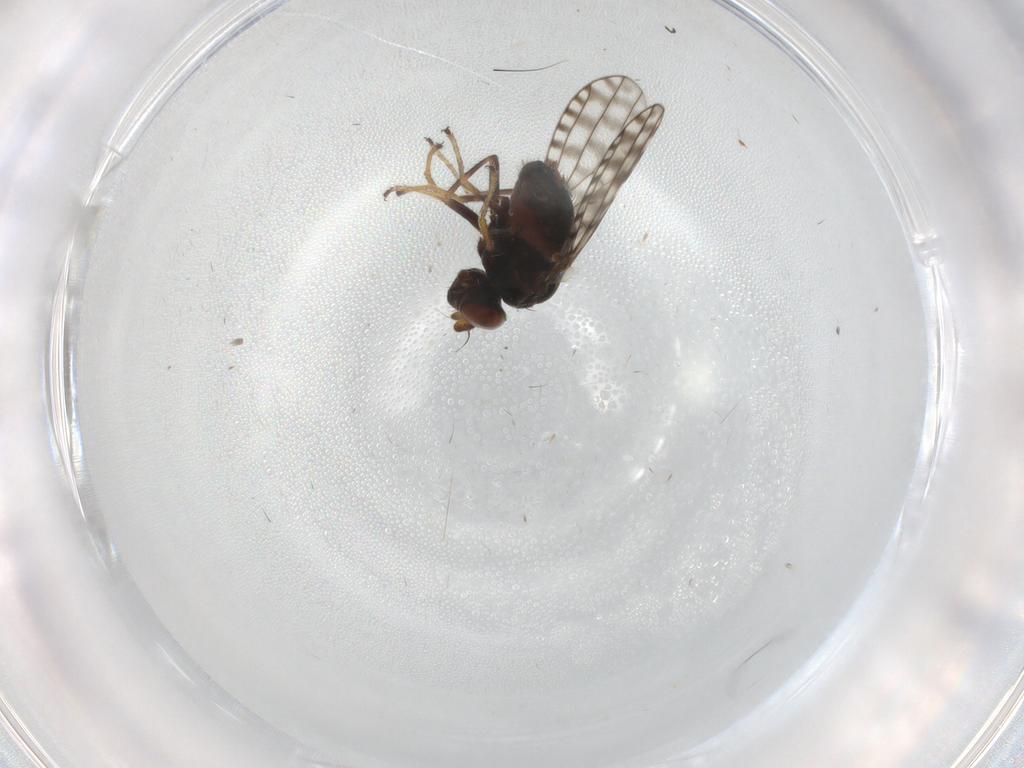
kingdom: Animalia
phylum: Arthropoda
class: Insecta
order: Diptera
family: Ephydridae
